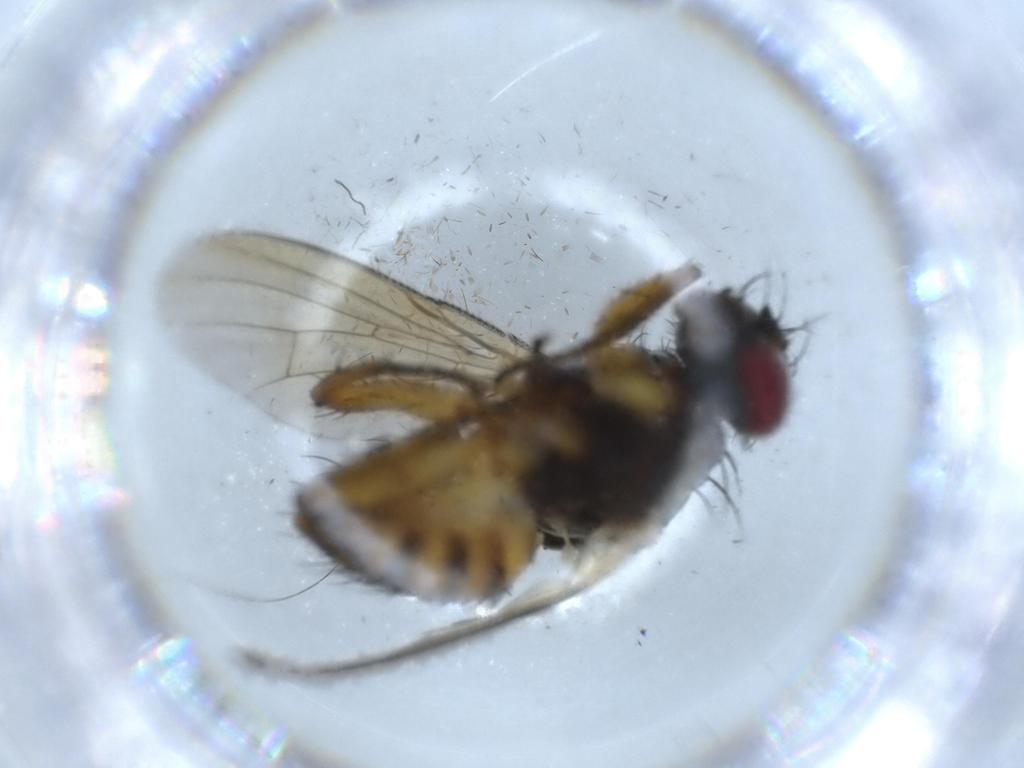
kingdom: Animalia
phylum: Arthropoda
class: Insecta
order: Diptera
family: Muscidae
